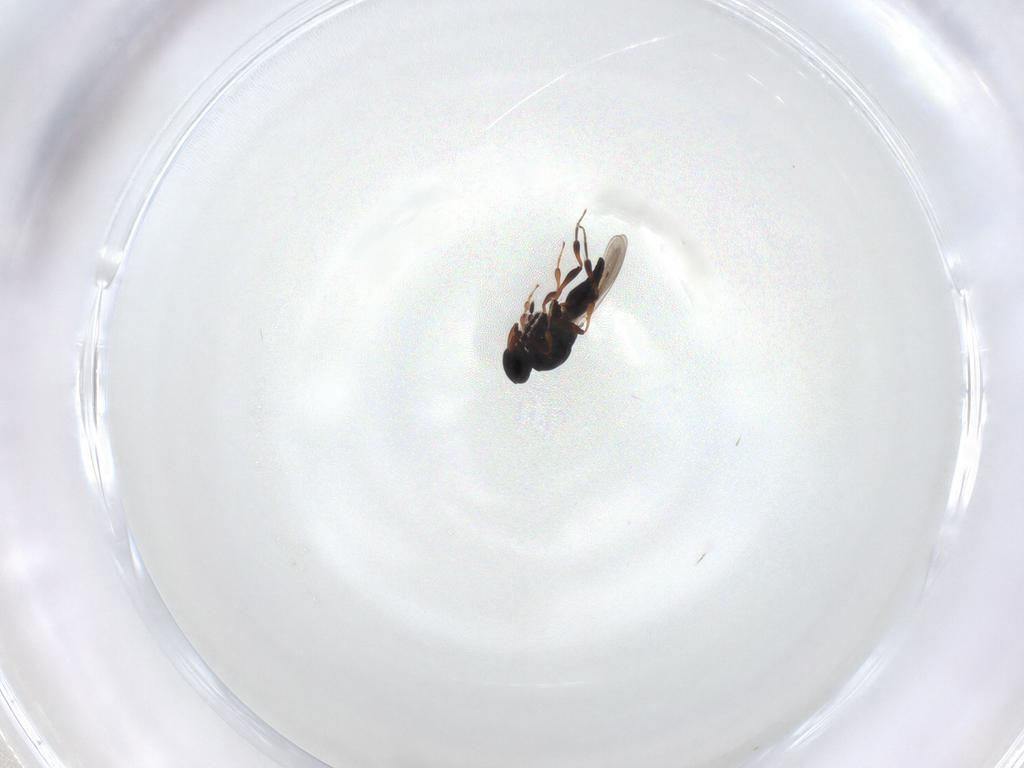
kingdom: Animalia
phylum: Arthropoda
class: Insecta
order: Hymenoptera
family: Platygastridae
